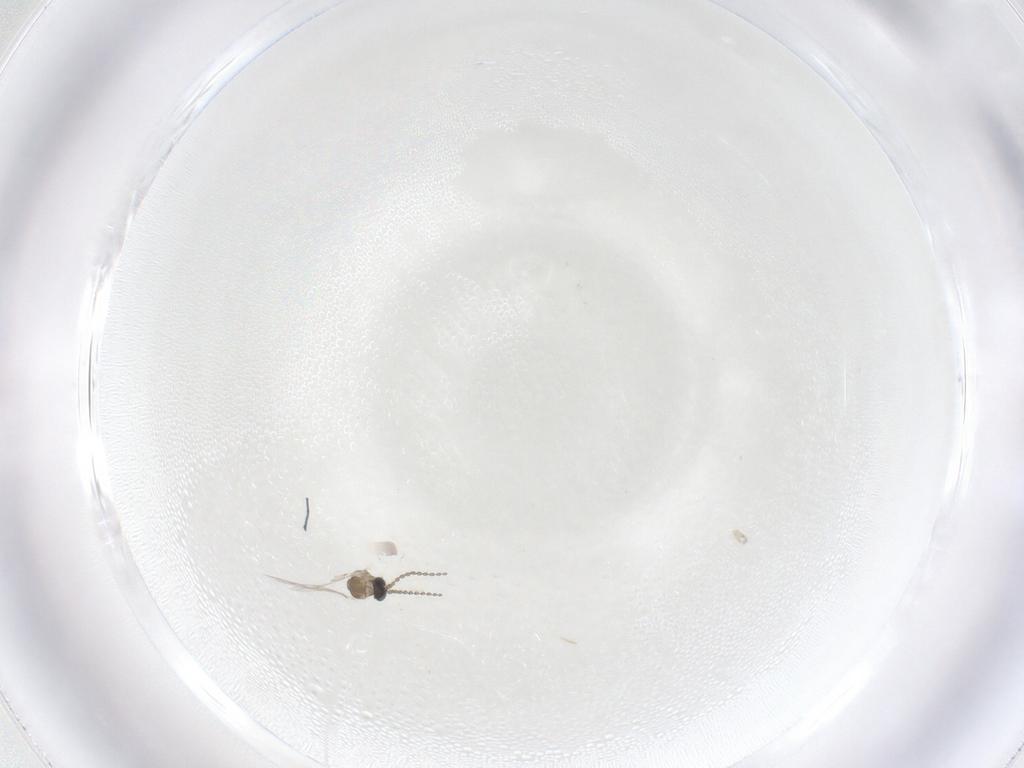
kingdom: Animalia
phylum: Arthropoda
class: Insecta
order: Diptera
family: Cecidomyiidae
